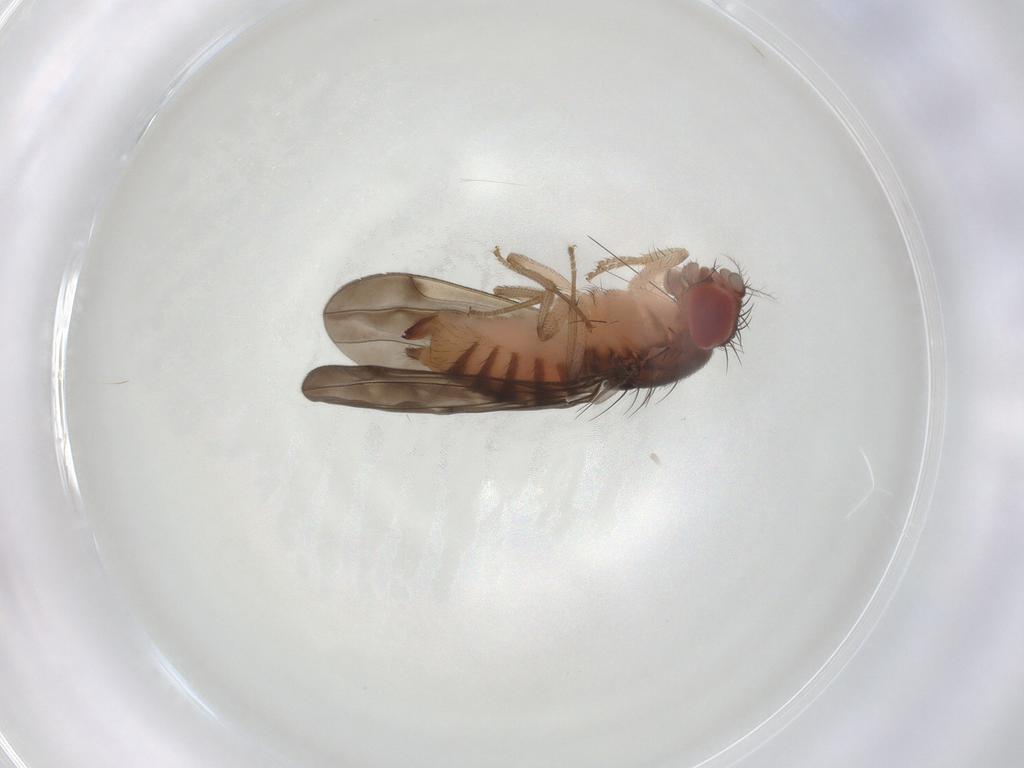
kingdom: Animalia
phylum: Arthropoda
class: Insecta
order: Diptera
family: Drosophilidae
